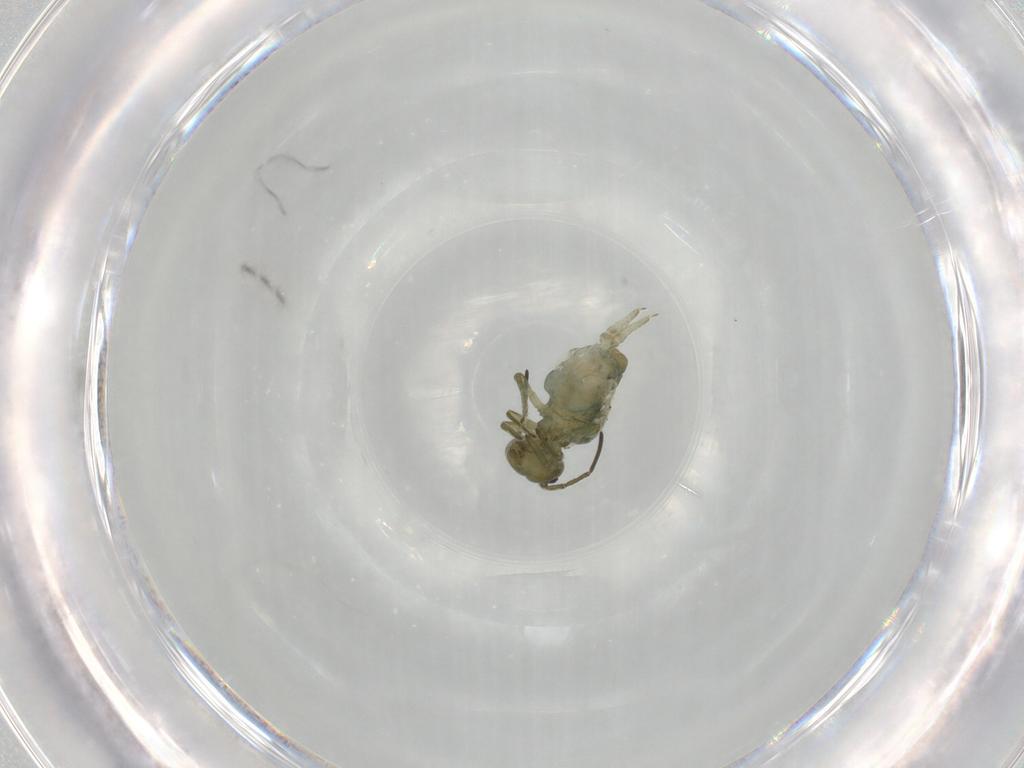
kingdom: Animalia
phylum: Arthropoda
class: Collembola
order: Symphypleona
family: Sminthuridae
